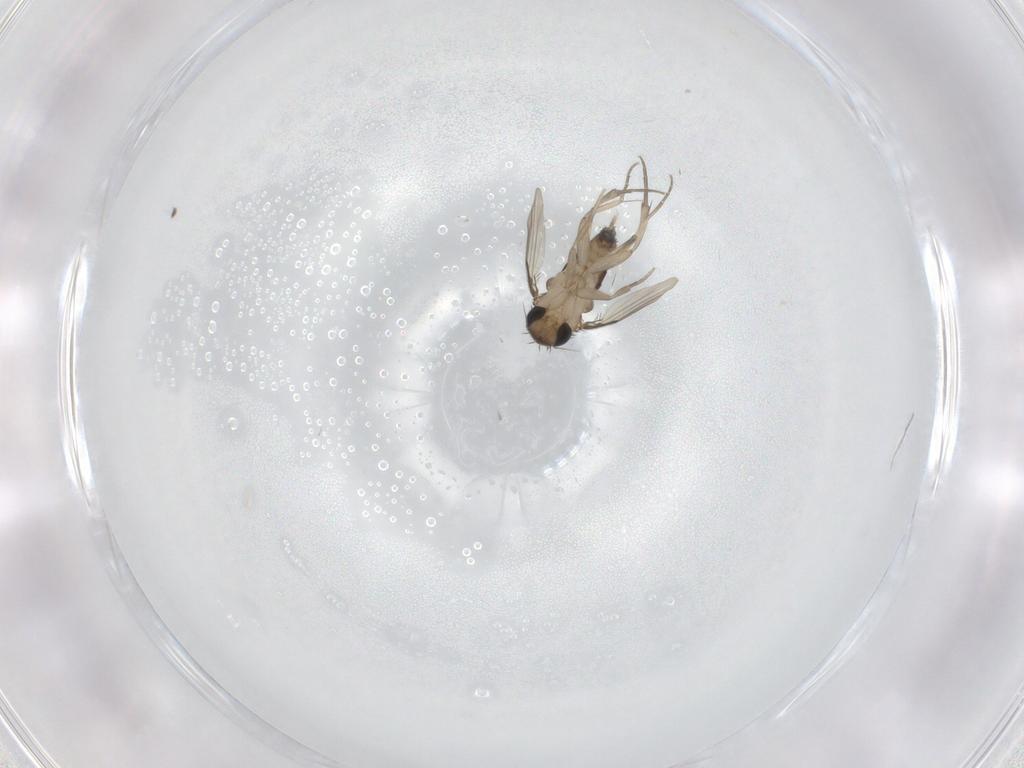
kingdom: Animalia
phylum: Arthropoda
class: Insecta
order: Diptera
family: Phoridae
